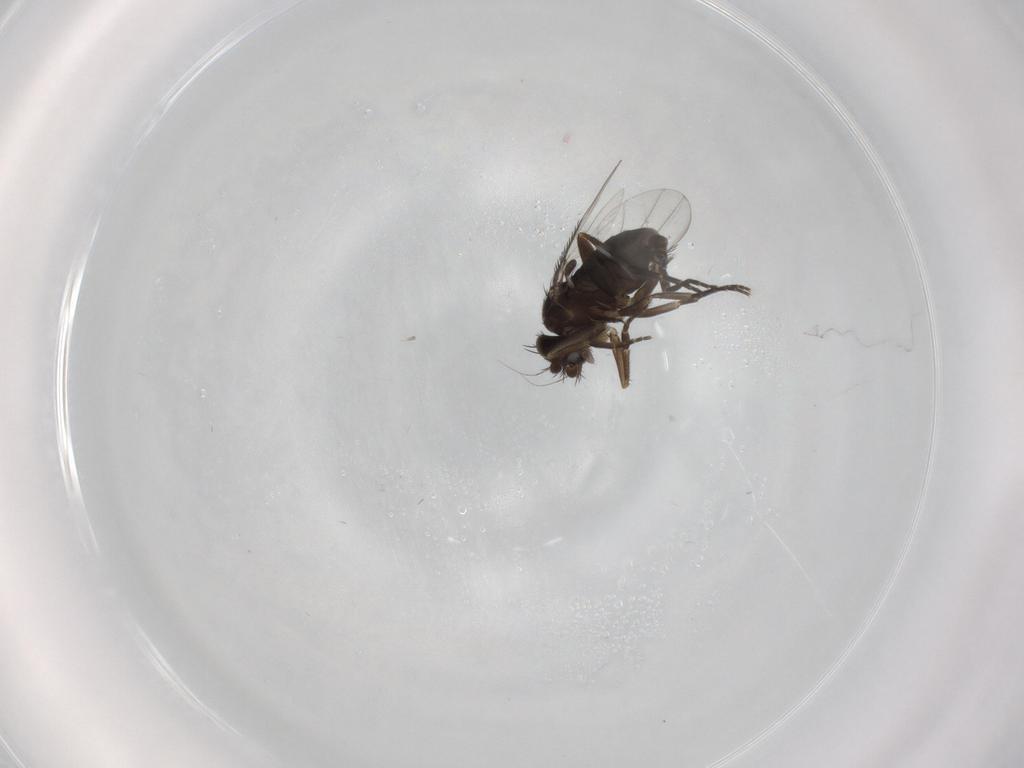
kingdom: Animalia
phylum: Arthropoda
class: Insecta
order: Diptera
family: Phoridae
